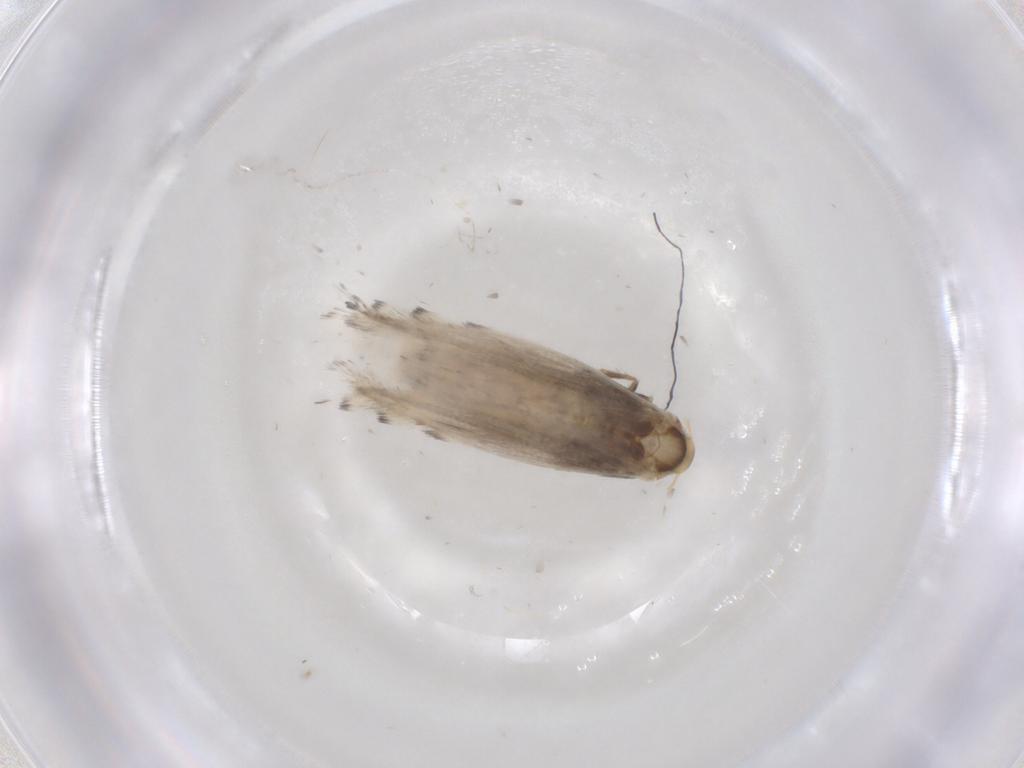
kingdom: Animalia
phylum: Arthropoda
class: Insecta
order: Lepidoptera
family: Gracillariidae
